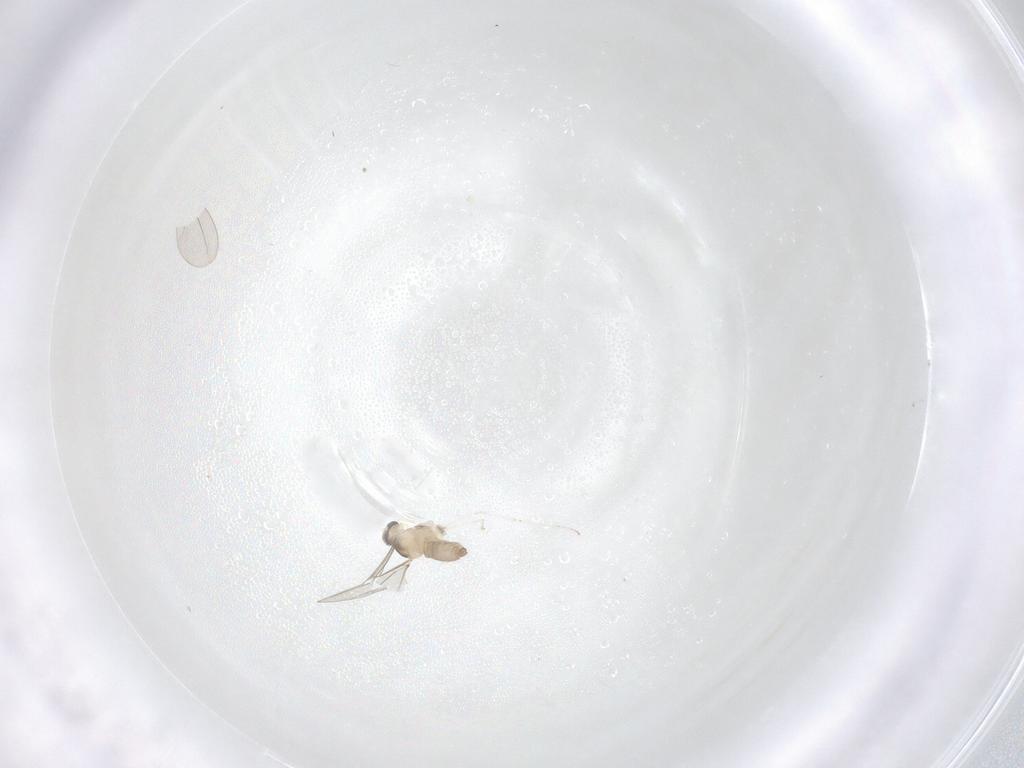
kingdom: Animalia
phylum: Arthropoda
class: Insecta
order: Diptera
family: Cecidomyiidae
